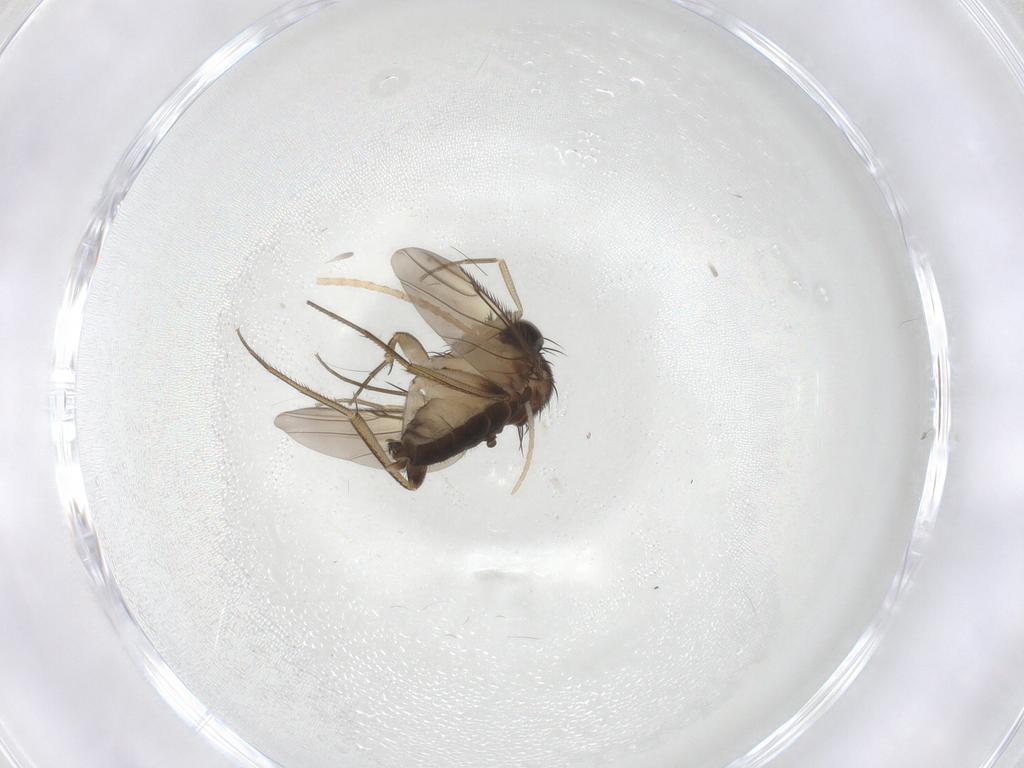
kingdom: Animalia
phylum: Arthropoda
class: Insecta
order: Diptera
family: Phoridae
